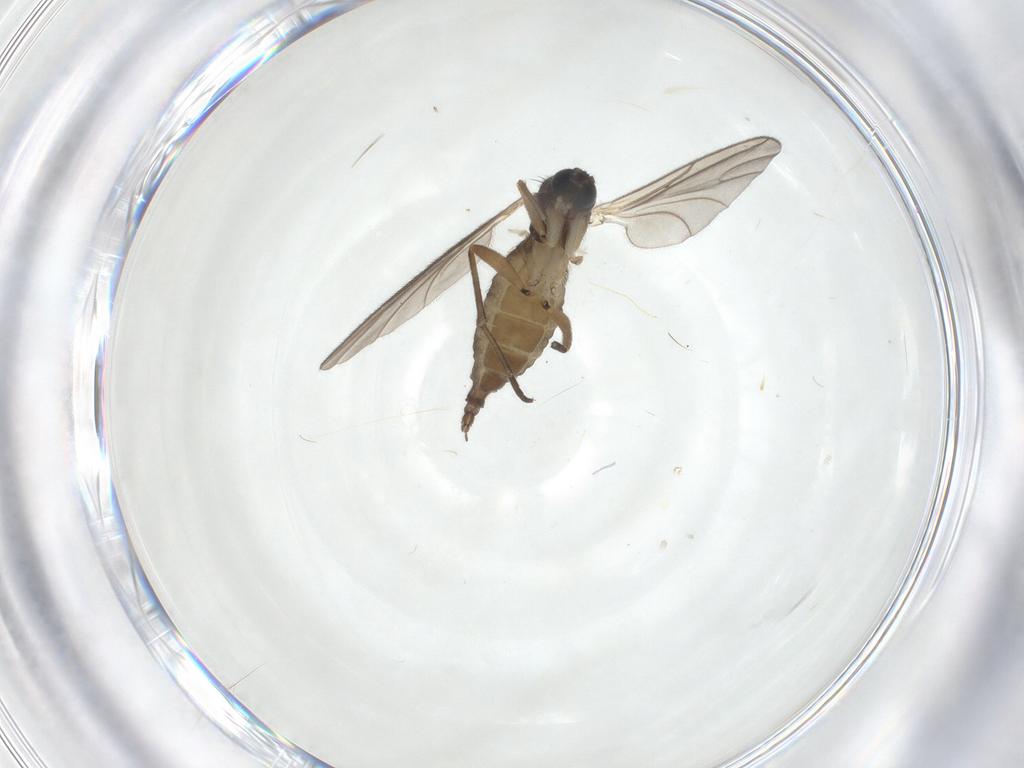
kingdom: Animalia
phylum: Arthropoda
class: Insecta
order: Diptera
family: Sciaridae
